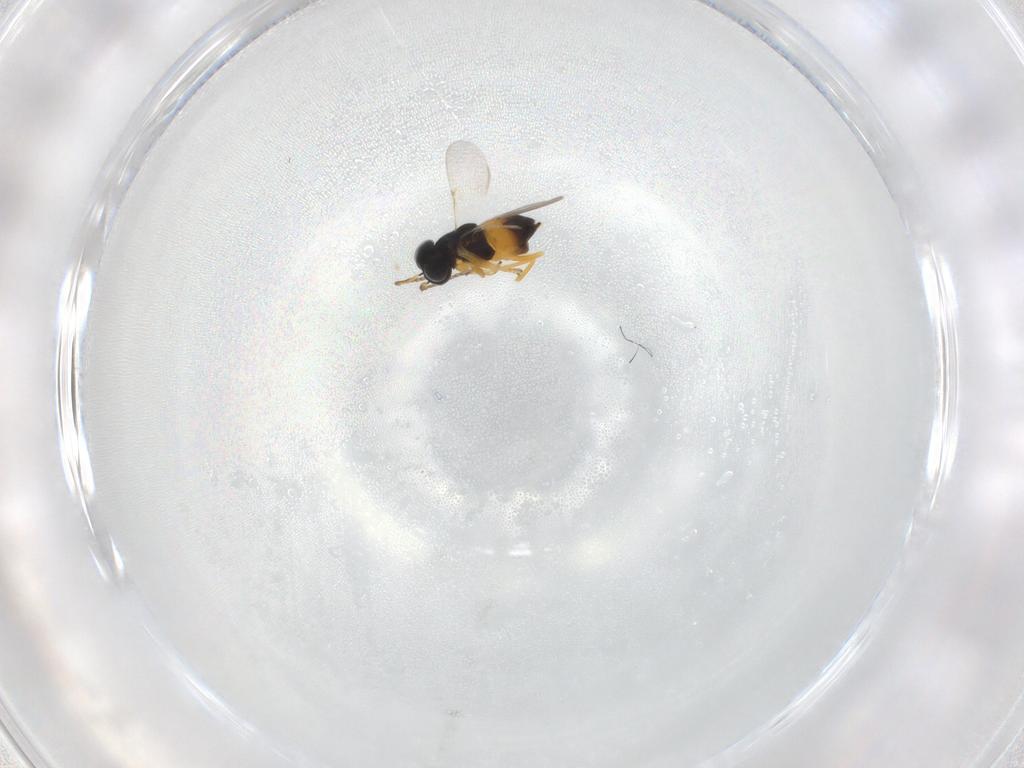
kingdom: Animalia
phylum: Arthropoda
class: Insecta
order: Hymenoptera
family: Encyrtidae
